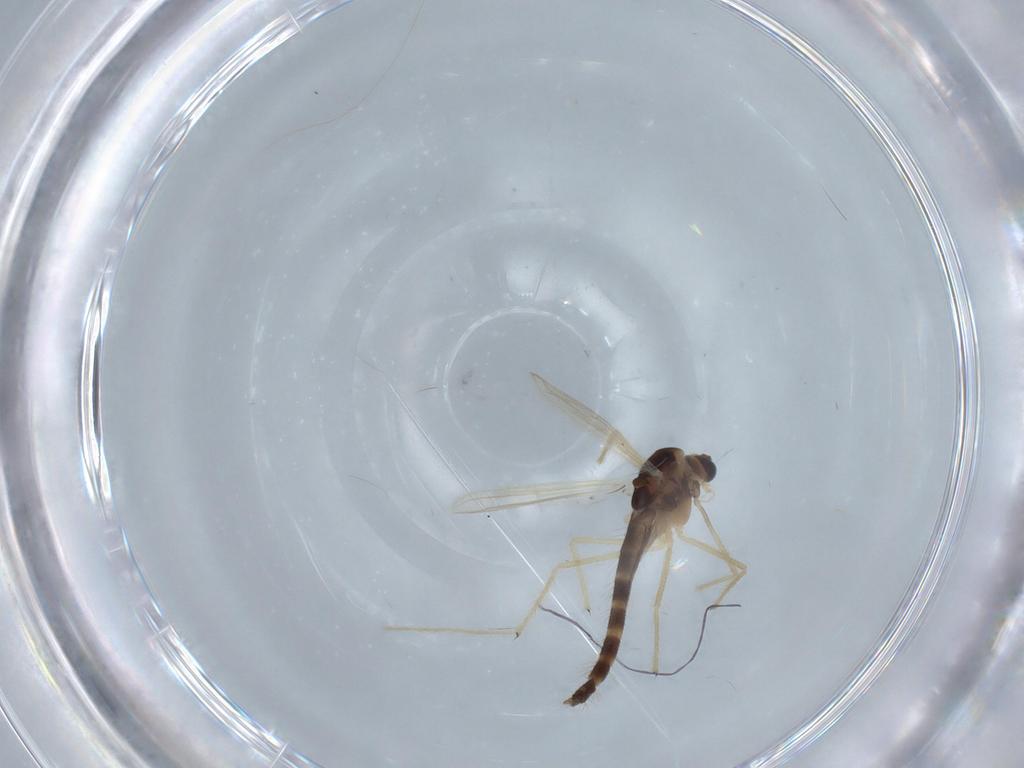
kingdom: Animalia
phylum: Arthropoda
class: Insecta
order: Diptera
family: Chironomidae
